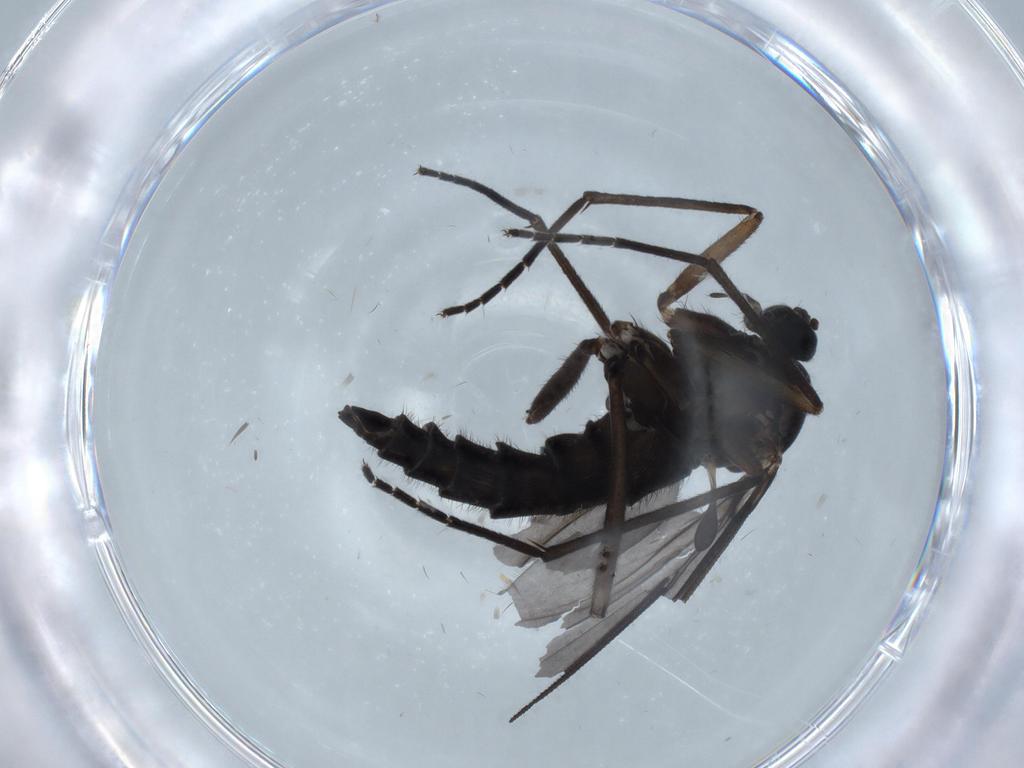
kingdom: Animalia
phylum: Arthropoda
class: Insecta
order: Diptera
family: Sciaridae
